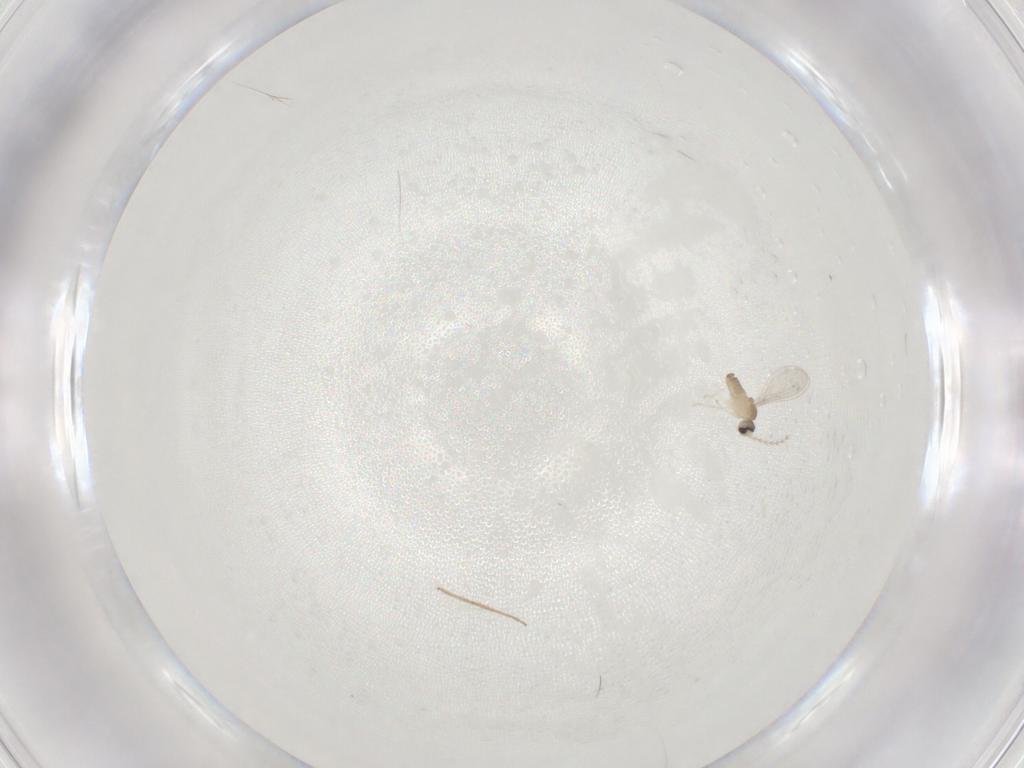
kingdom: Animalia
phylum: Arthropoda
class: Insecta
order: Diptera
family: Cecidomyiidae
